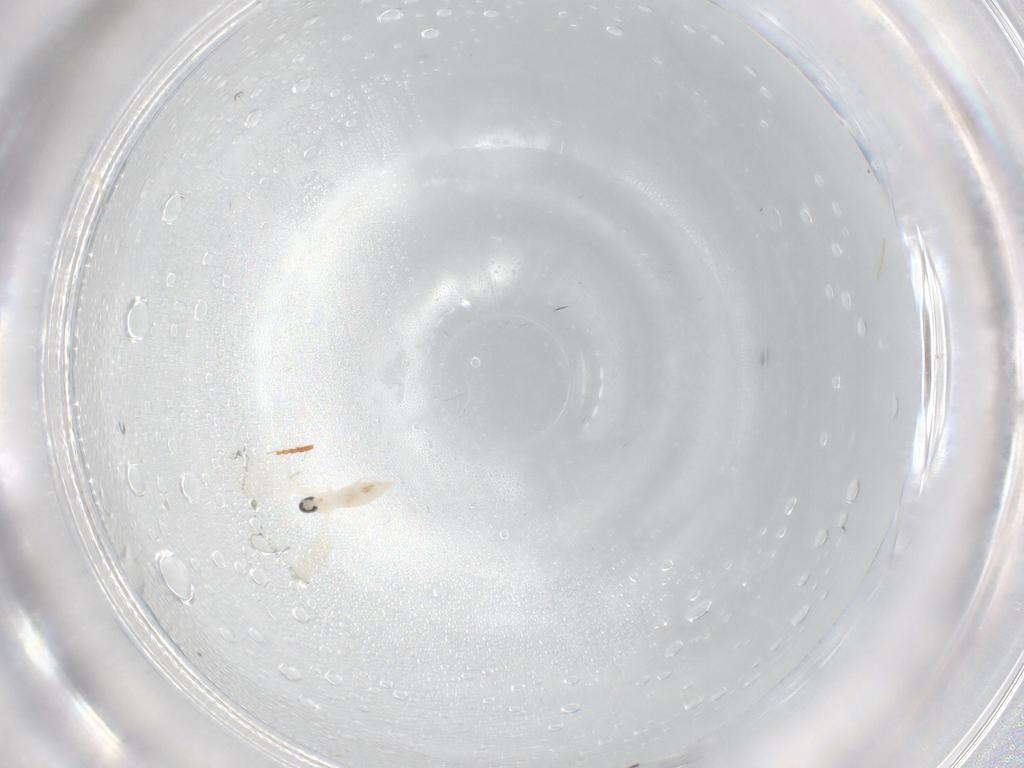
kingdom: Animalia
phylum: Arthropoda
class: Insecta
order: Diptera
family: Cecidomyiidae
